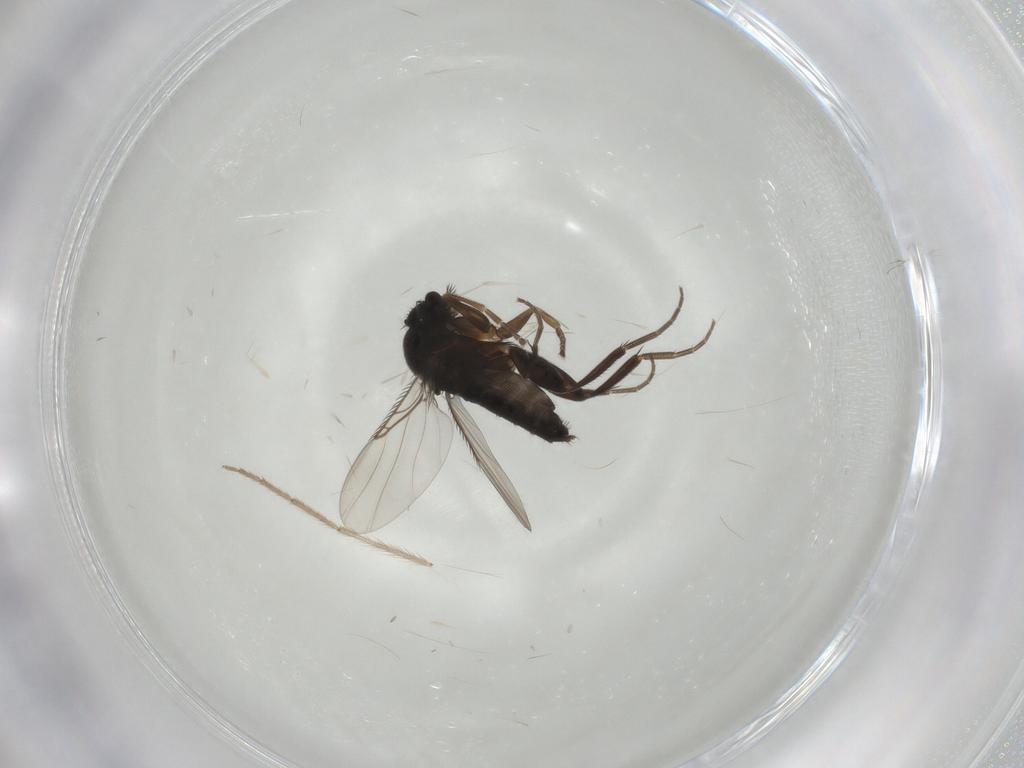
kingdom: Animalia
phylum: Arthropoda
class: Insecta
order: Diptera
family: Phoridae
